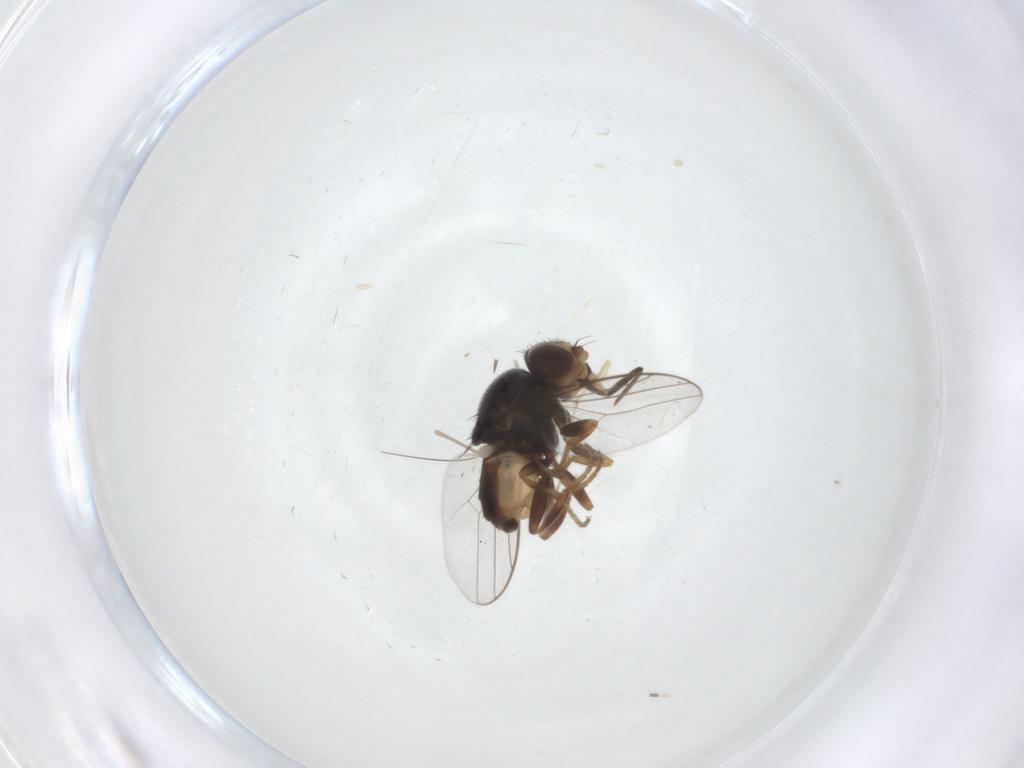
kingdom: Animalia
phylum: Arthropoda
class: Insecta
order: Diptera
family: Chloropidae
